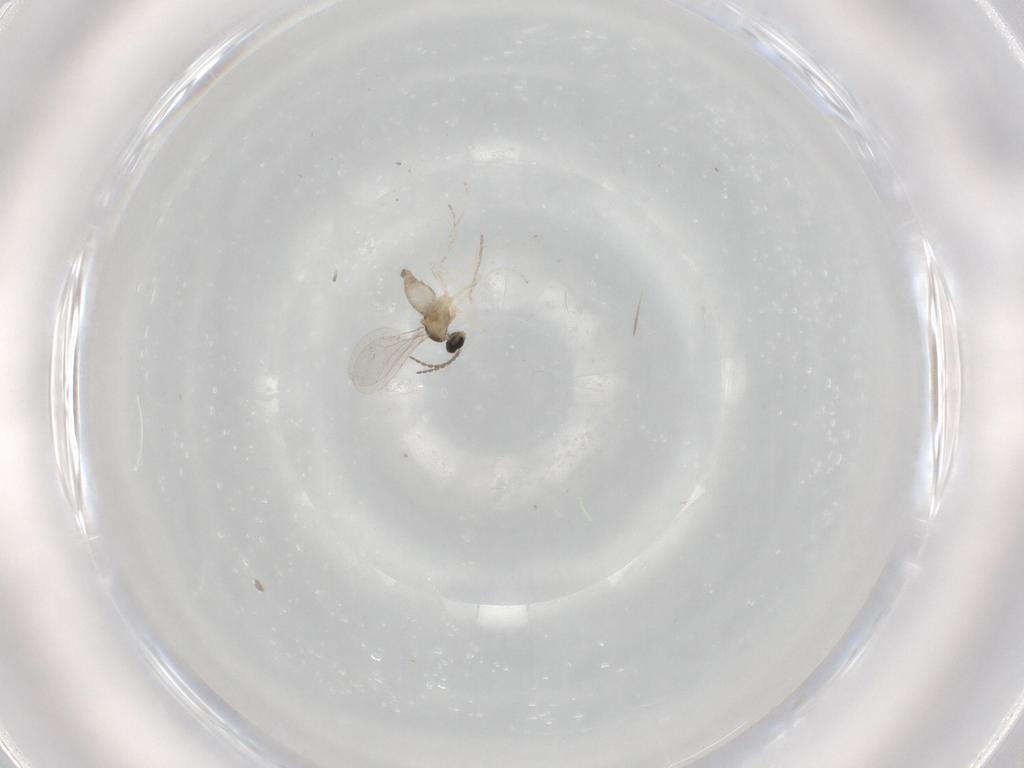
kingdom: Animalia
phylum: Arthropoda
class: Insecta
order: Diptera
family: Cecidomyiidae
